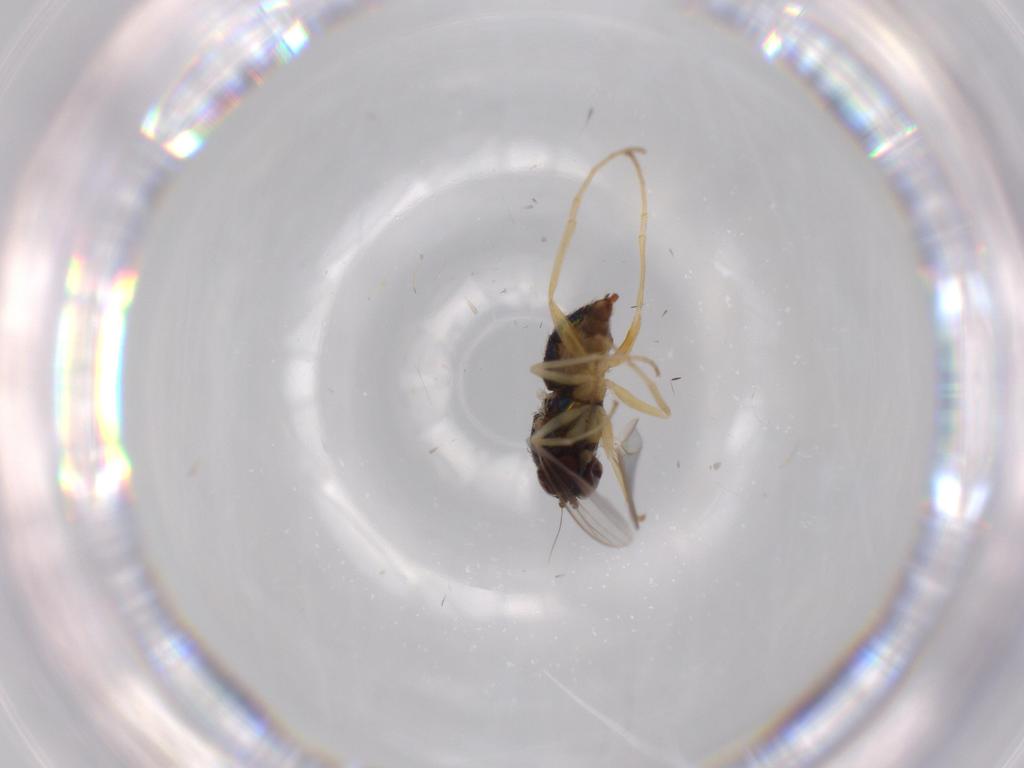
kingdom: Animalia
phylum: Arthropoda
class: Insecta
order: Diptera
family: Dolichopodidae
